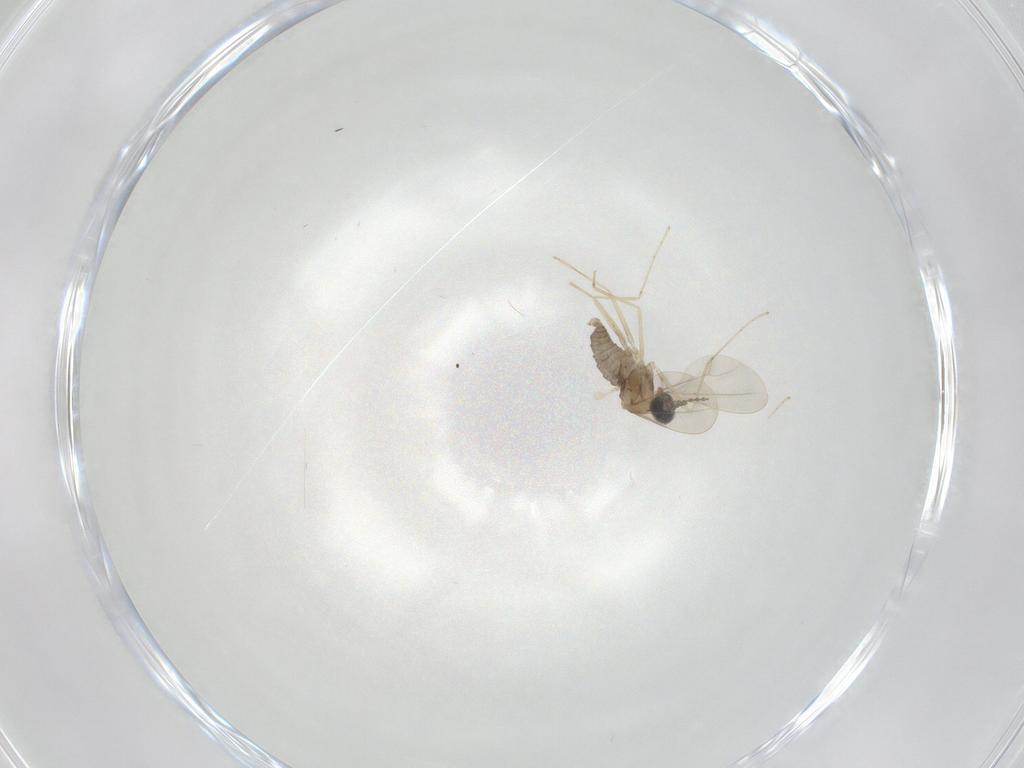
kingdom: Animalia
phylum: Arthropoda
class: Insecta
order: Diptera
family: Cecidomyiidae
